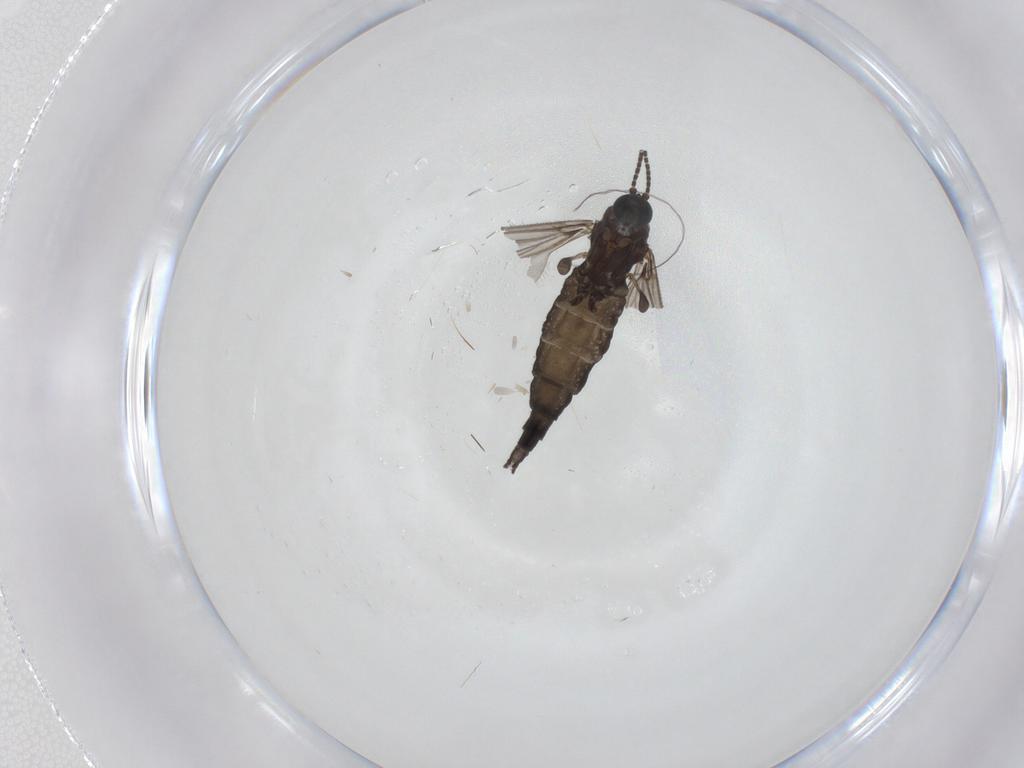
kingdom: Animalia
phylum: Arthropoda
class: Insecta
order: Diptera
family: Sciaridae
